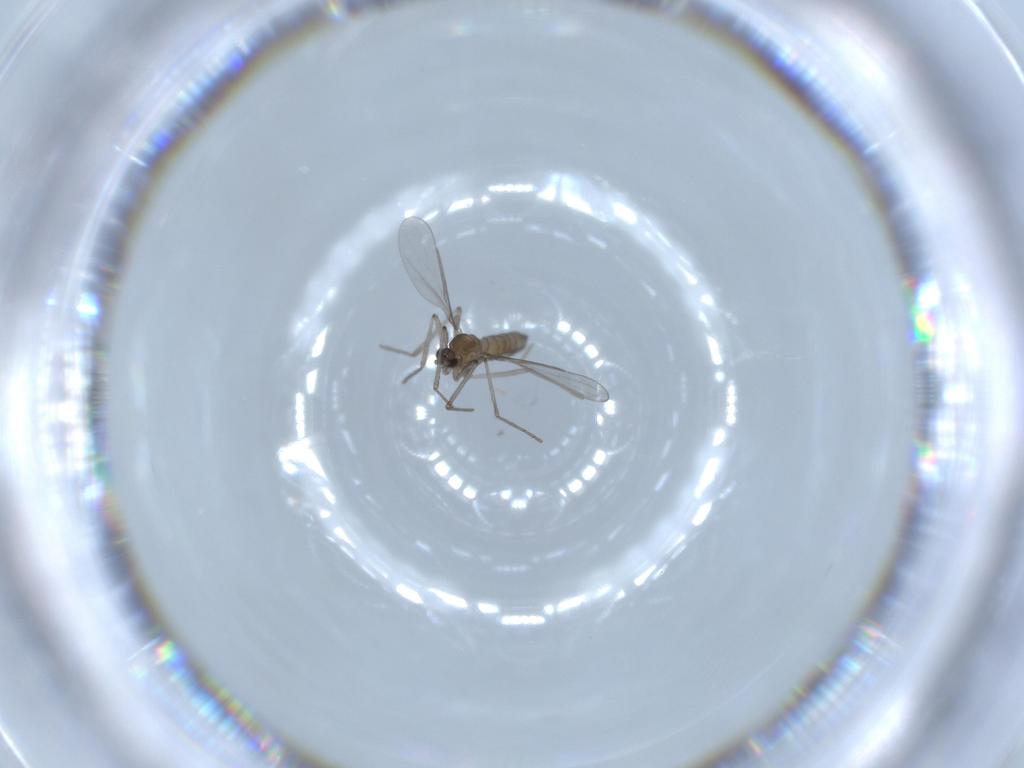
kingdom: Animalia
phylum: Arthropoda
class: Insecta
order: Diptera
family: Cecidomyiidae
